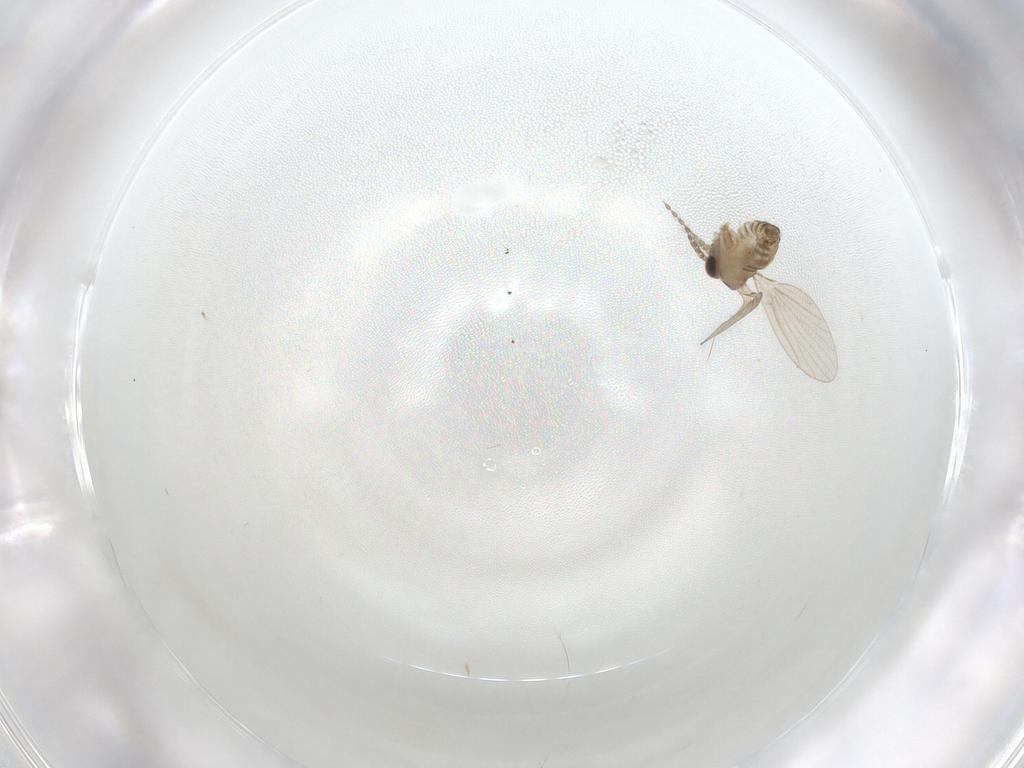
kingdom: Animalia
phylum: Arthropoda
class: Insecta
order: Diptera
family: Psychodidae
